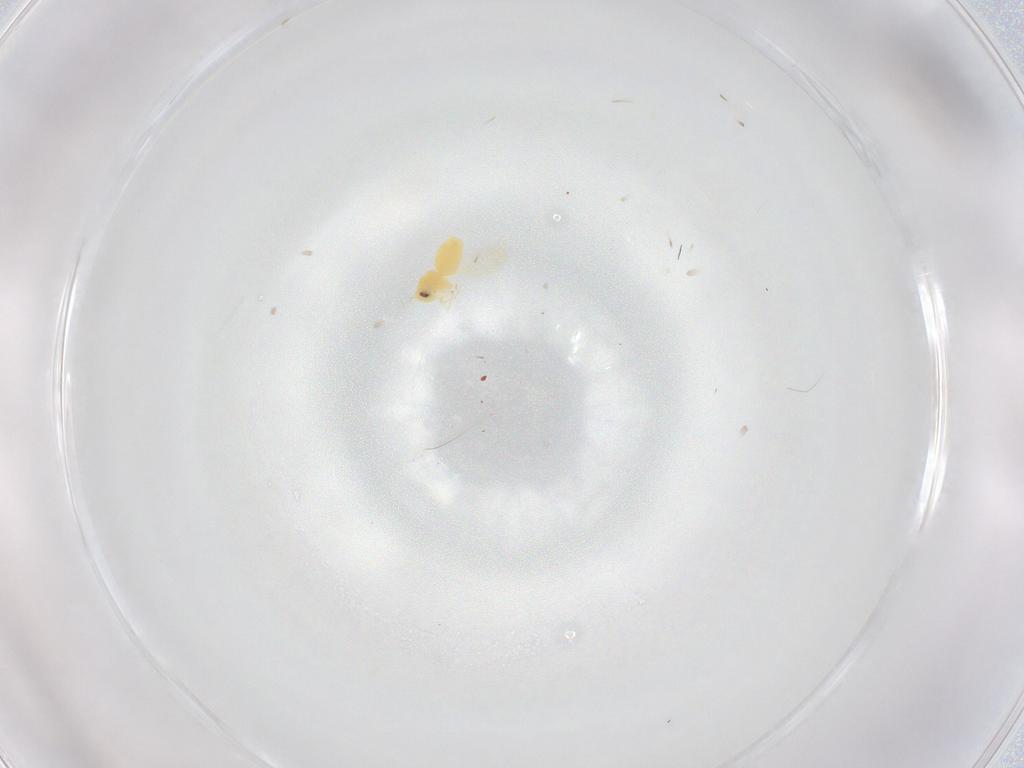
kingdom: Animalia
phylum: Arthropoda
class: Insecta
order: Hemiptera
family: Aleyrodidae
